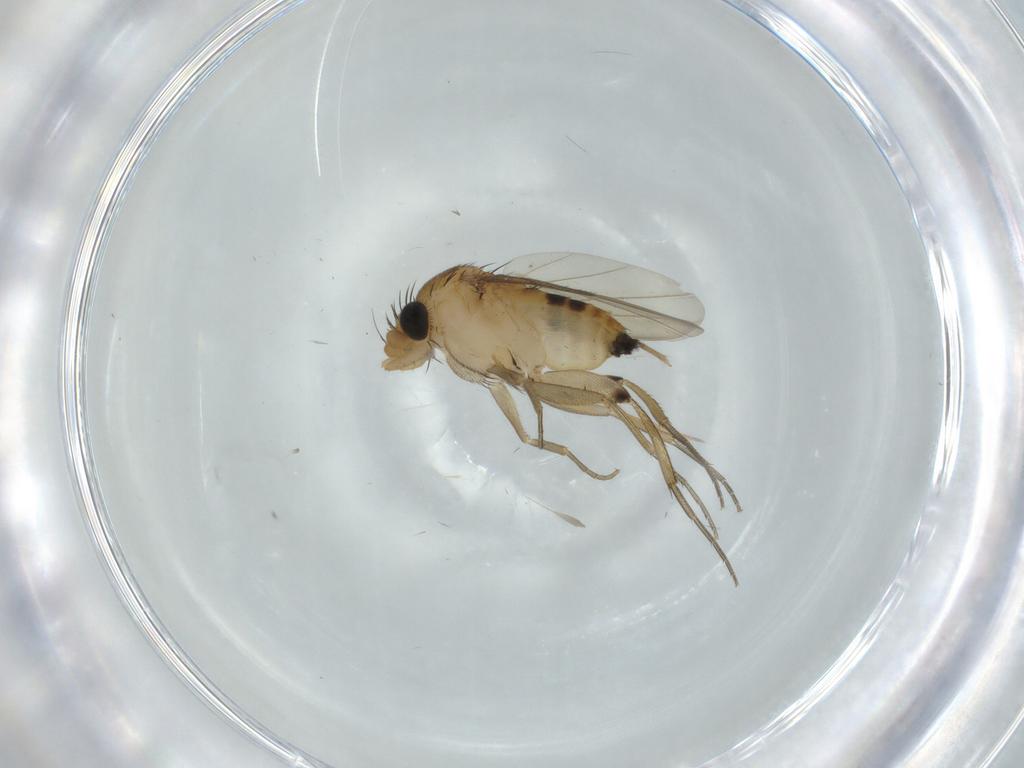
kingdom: Animalia
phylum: Arthropoda
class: Insecta
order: Diptera
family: Phoridae
